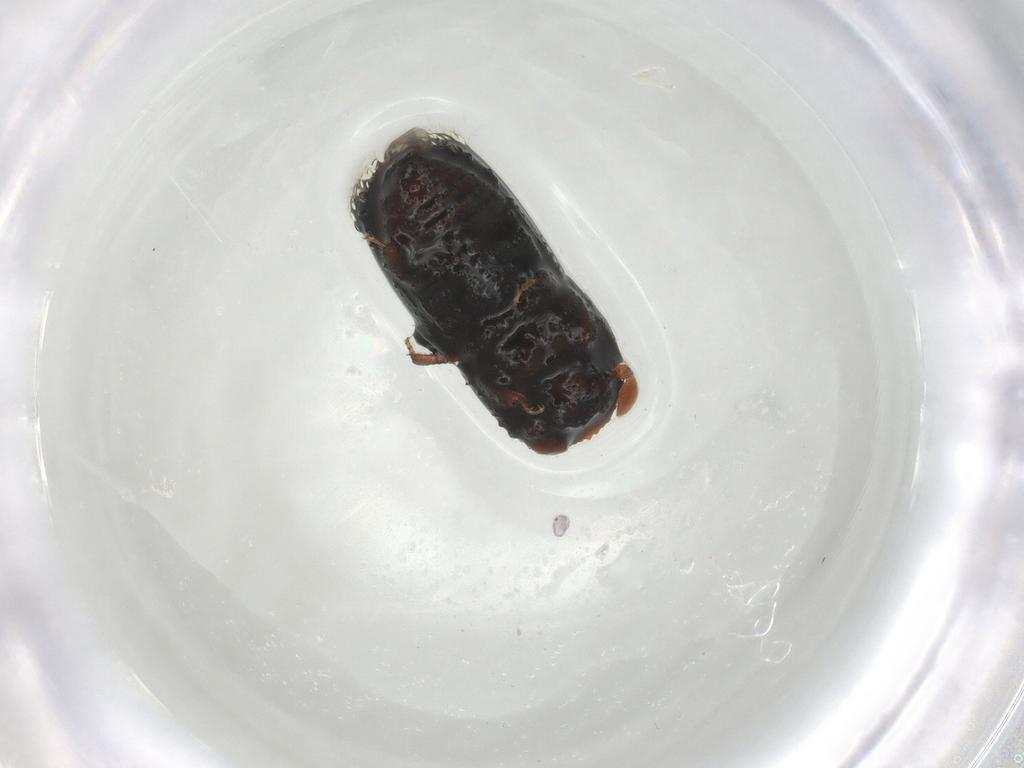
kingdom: Animalia
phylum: Arthropoda
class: Insecta
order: Coleoptera
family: Curculionidae
